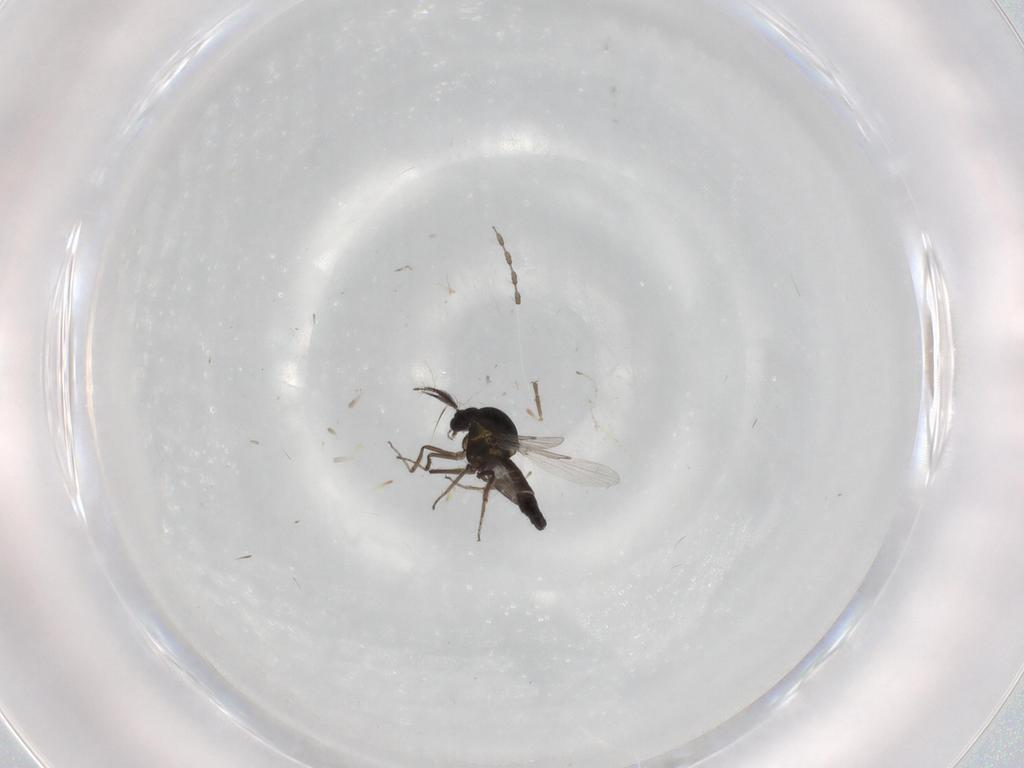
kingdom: Animalia
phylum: Arthropoda
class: Insecta
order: Diptera
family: Ceratopogonidae
